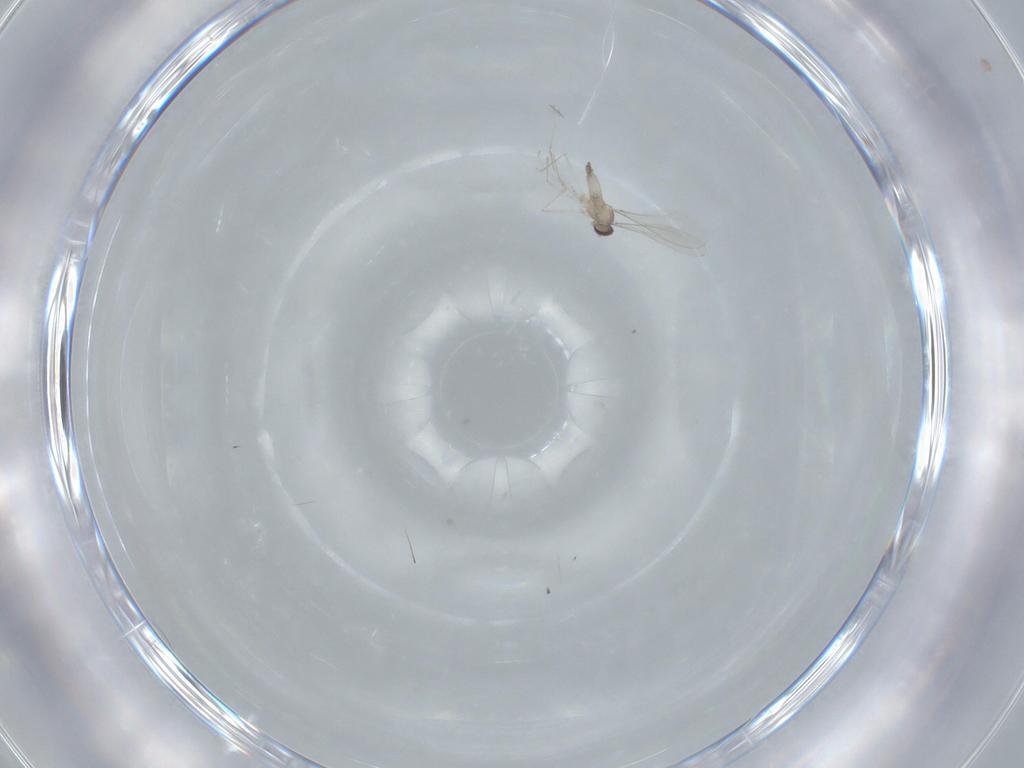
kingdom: Animalia
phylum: Arthropoda
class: Insecta
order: Diptera
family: Cecidomyiidae
